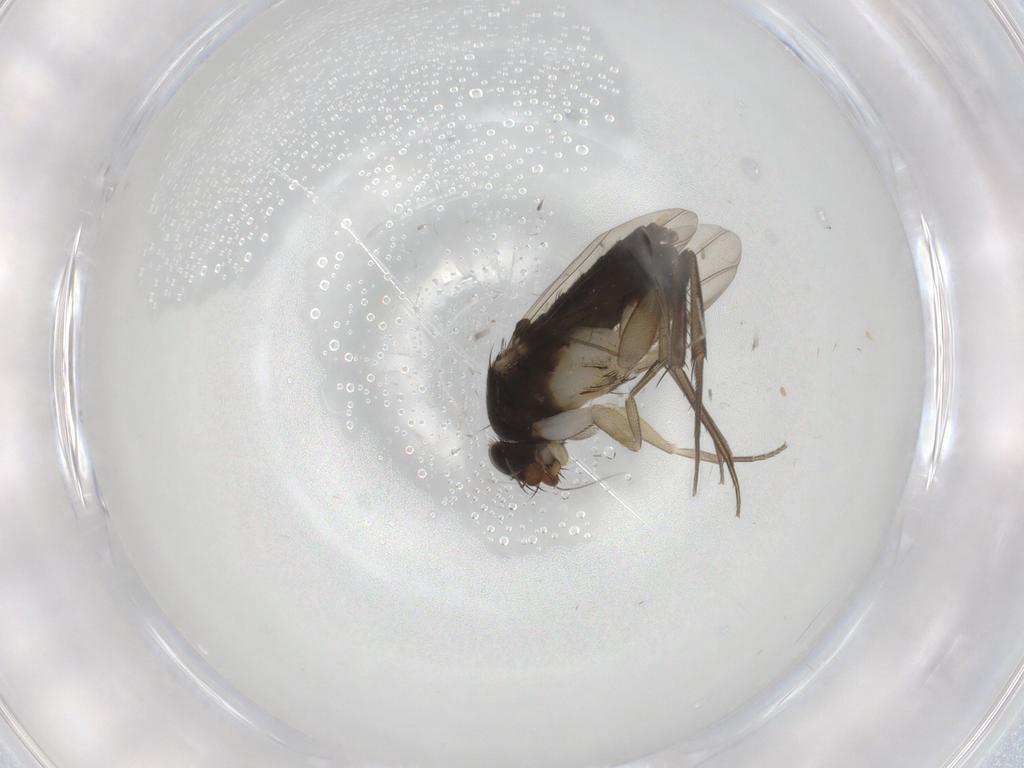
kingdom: Animalia
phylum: Arthropoda
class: Insecta
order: Diptera
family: Phoridae
